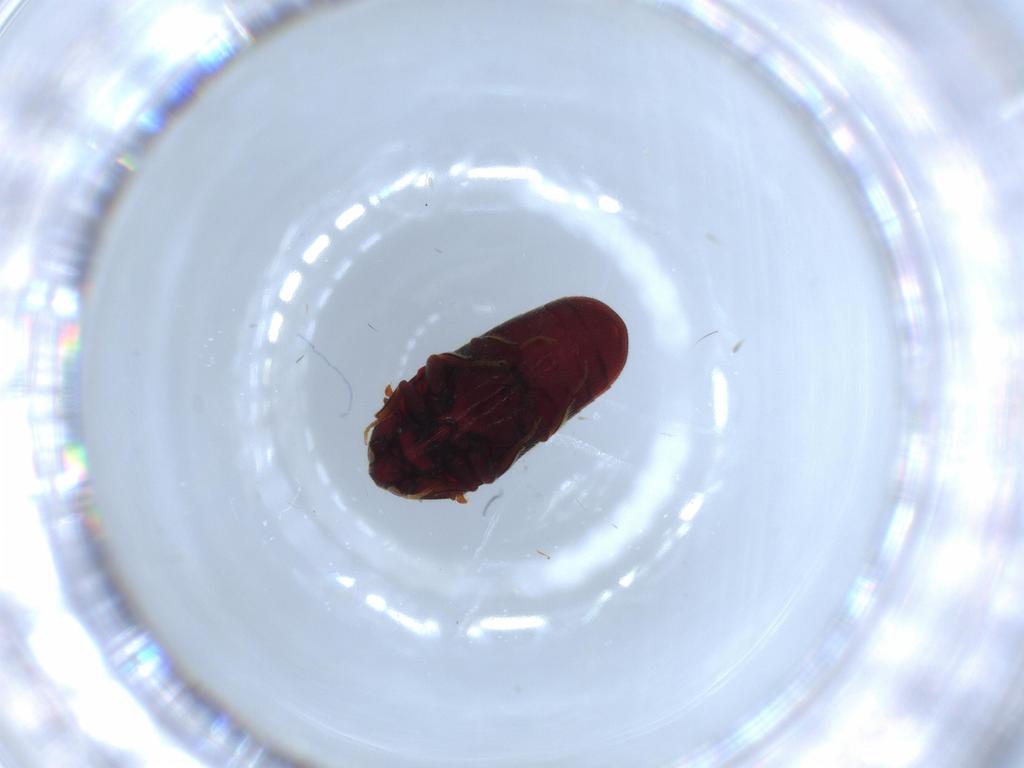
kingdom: Animalia
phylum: Arthropoda
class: Insecta
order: Coleoptera
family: Throscidae
